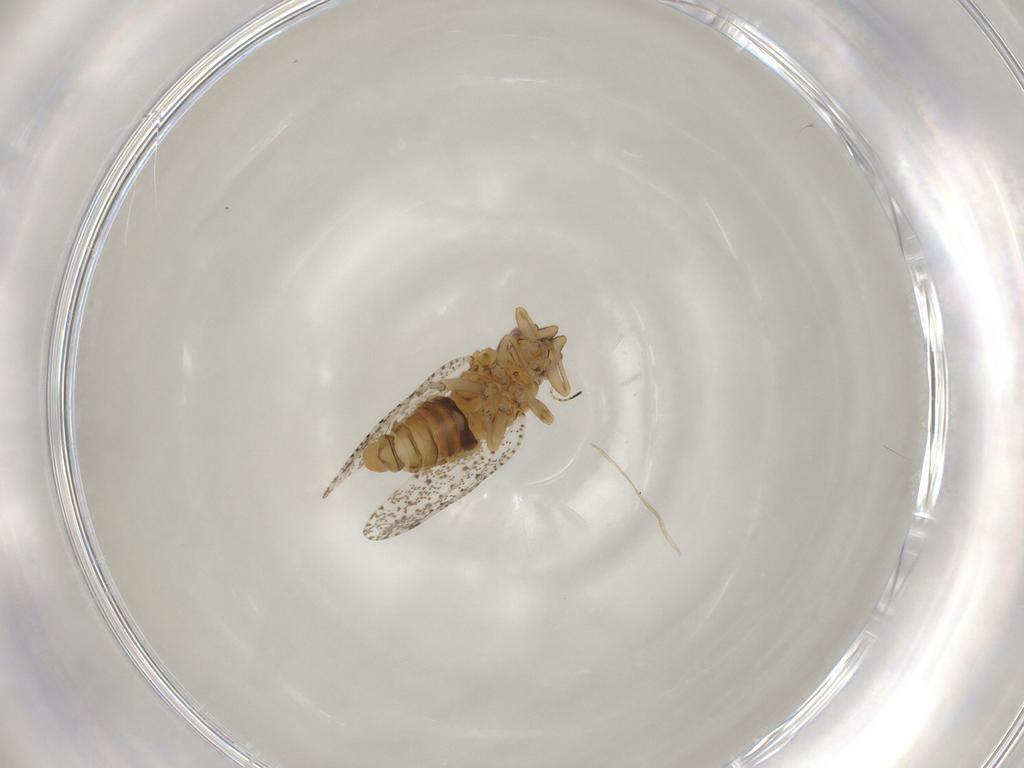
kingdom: Animalia
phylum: Arthropoda
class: Insecta
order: Hemiptera
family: Psylloidea_incertae_sedis
